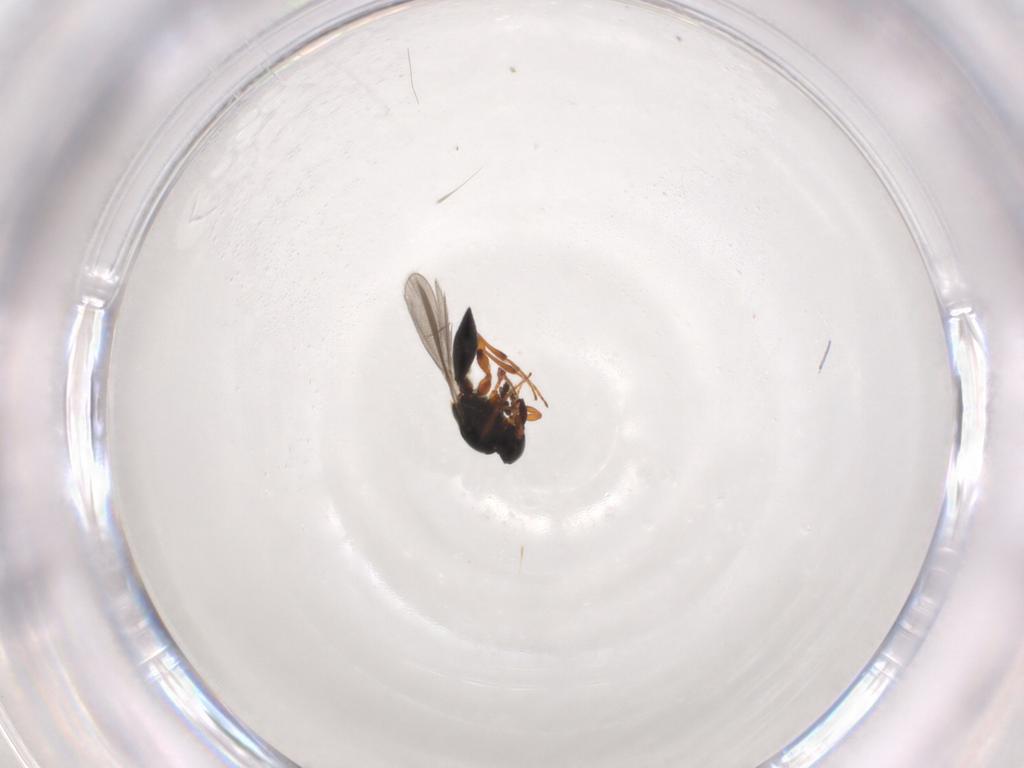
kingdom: Animalia
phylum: Arthropoda
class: Insecta
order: Hymenoptera
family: Platygastridae
